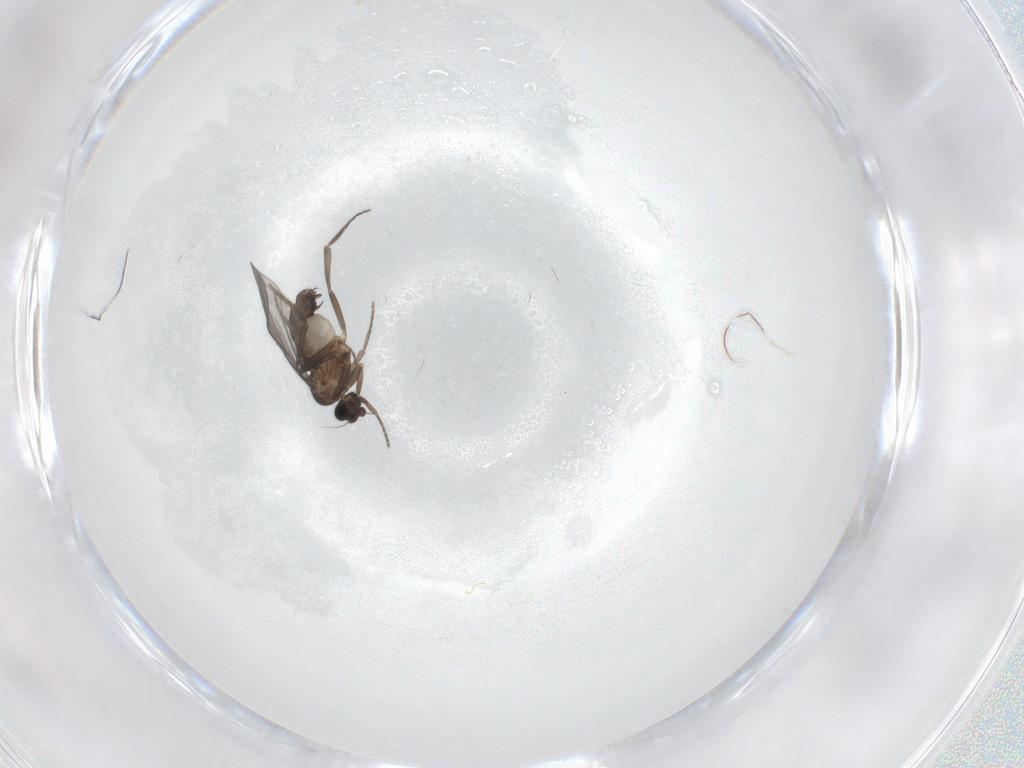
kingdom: Animalia
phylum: Arthropoda
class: Insecta
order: Diptera
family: Phoridae
